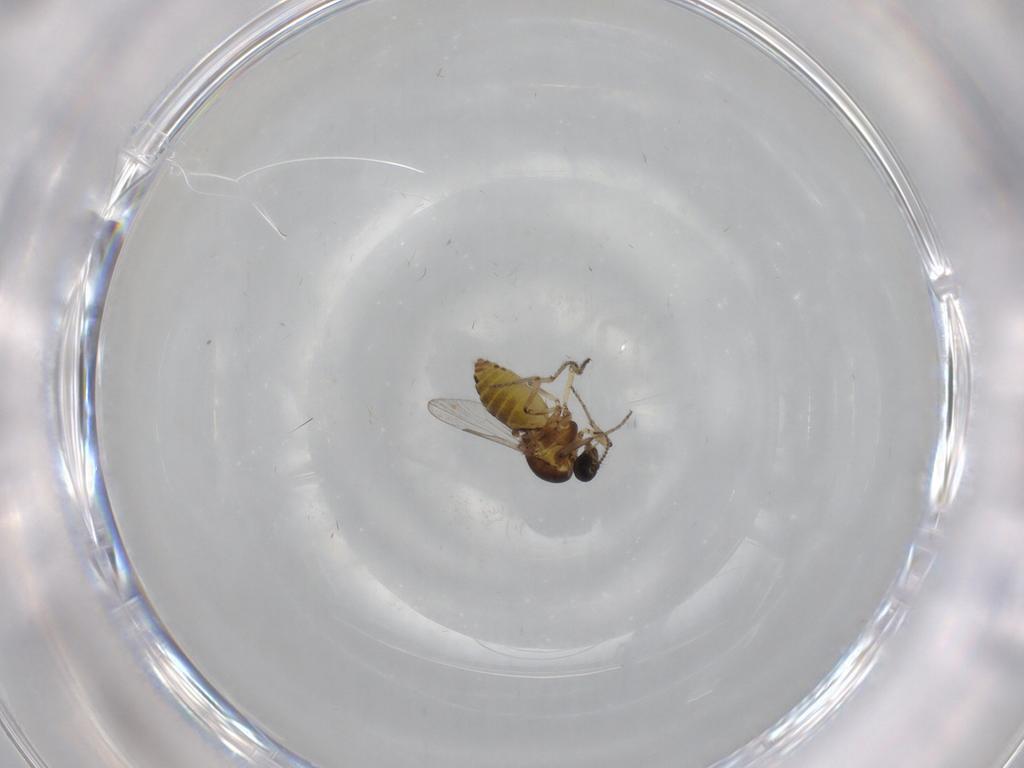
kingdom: Animalia
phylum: Arthropoda
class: Insecta
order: Diptera
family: Ceratopogonidae
